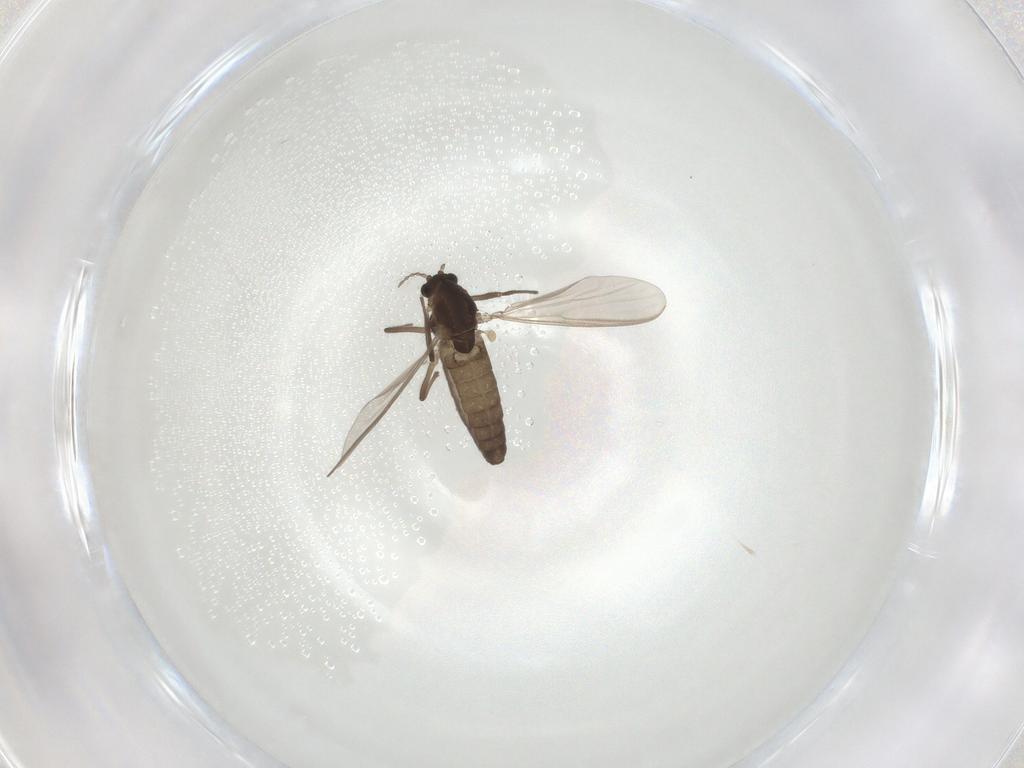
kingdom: Animalia
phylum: Arthropoda
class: Insecta
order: Diptera
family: Chironomidae
